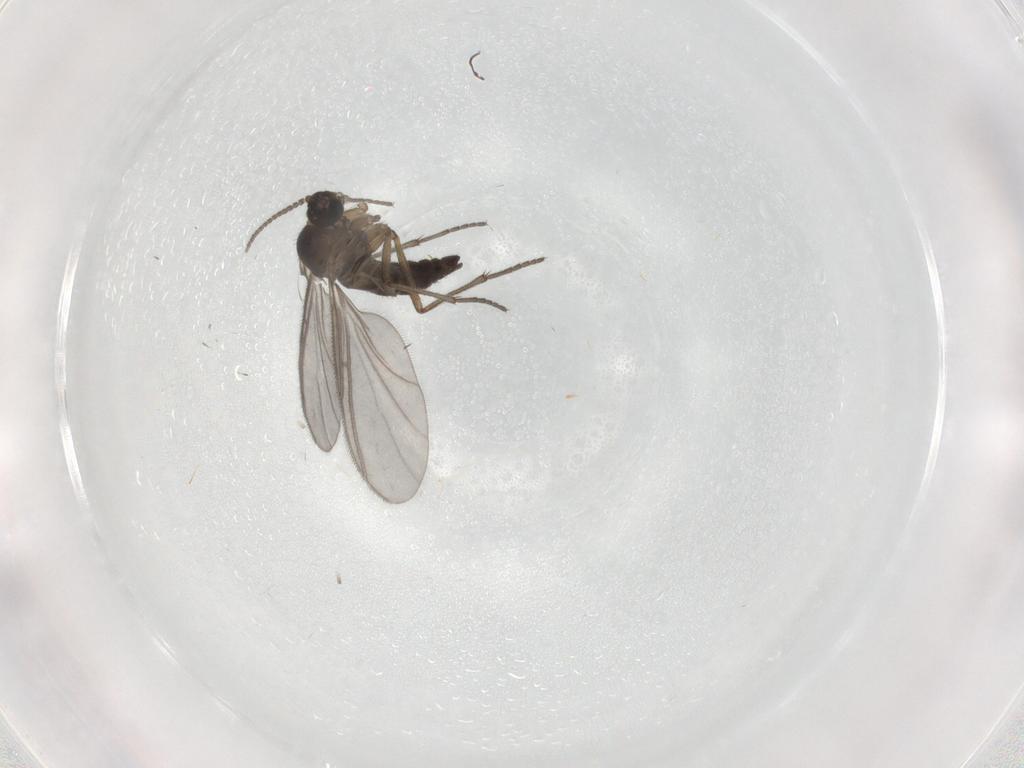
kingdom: Animalia
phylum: Arthropoda
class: Insecta
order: Diptera
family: Sciaridae
